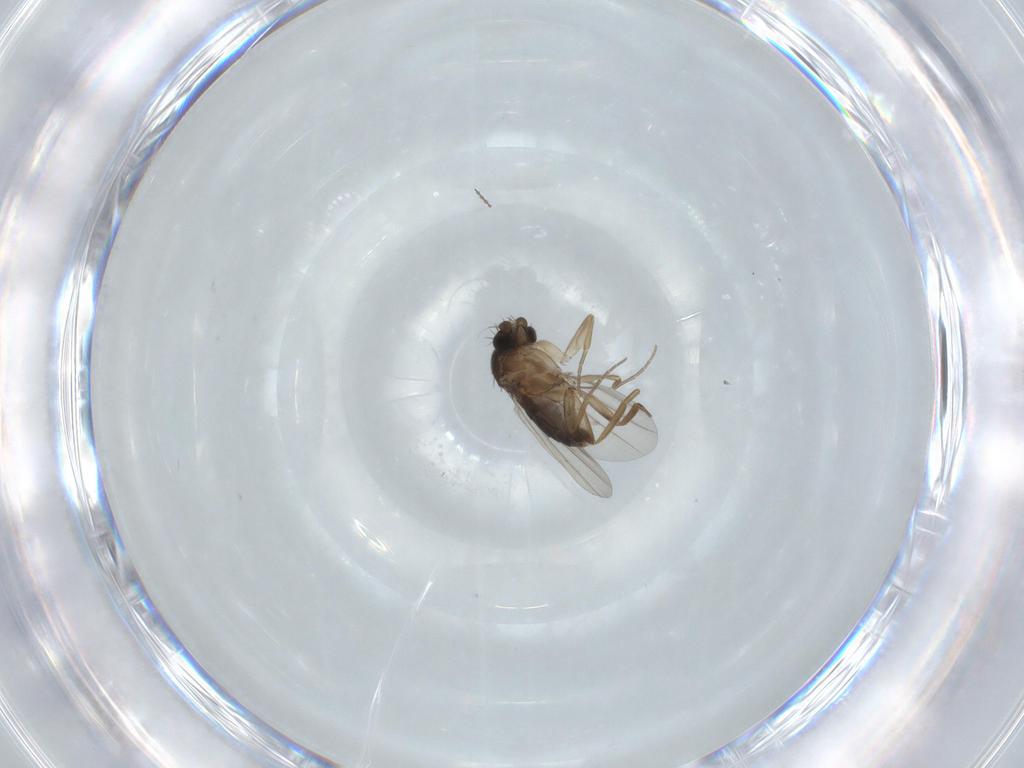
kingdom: Animalia
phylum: Arthropoda
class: Insecta
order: Diptera
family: Phoridae
